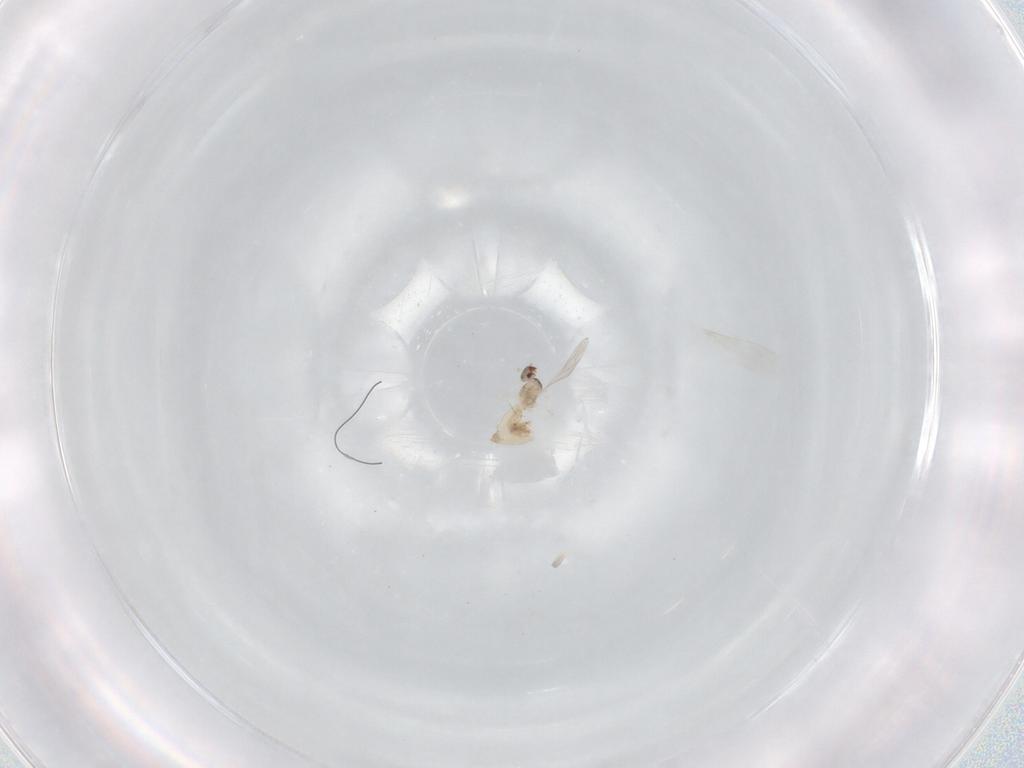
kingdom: Animalia
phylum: Arthropoda
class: Insecta
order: Diptera
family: Cecidomyiidae
